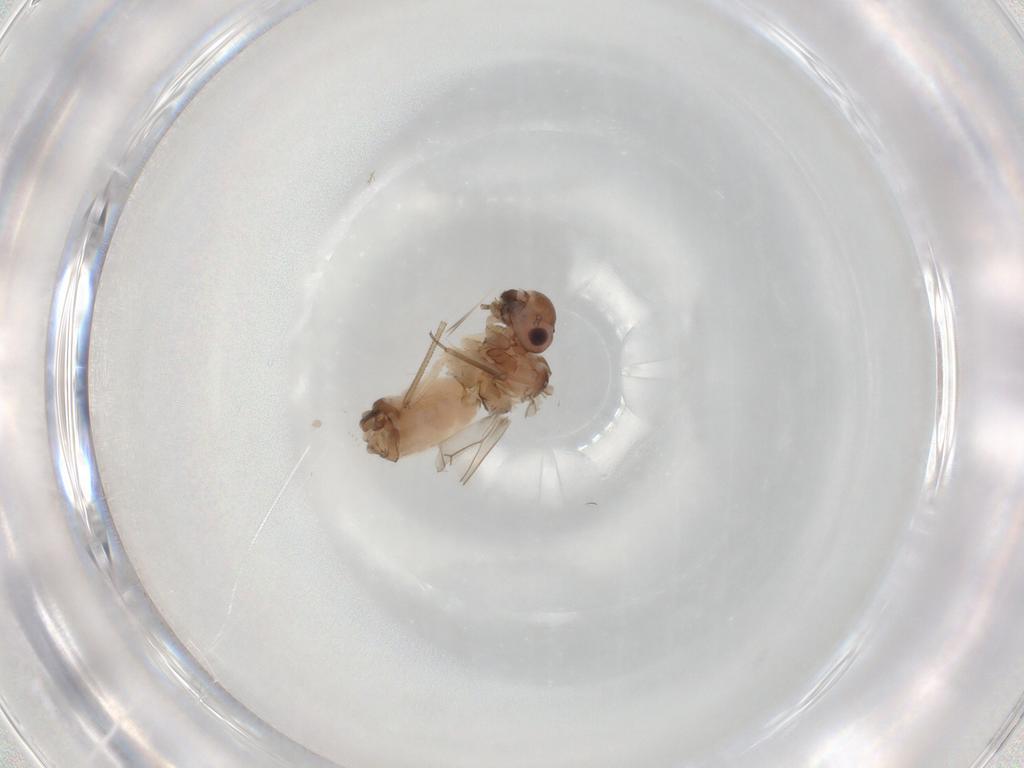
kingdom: Animalia
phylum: Arthropoda
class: Insecta
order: Psocodea
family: Peripsocidae
